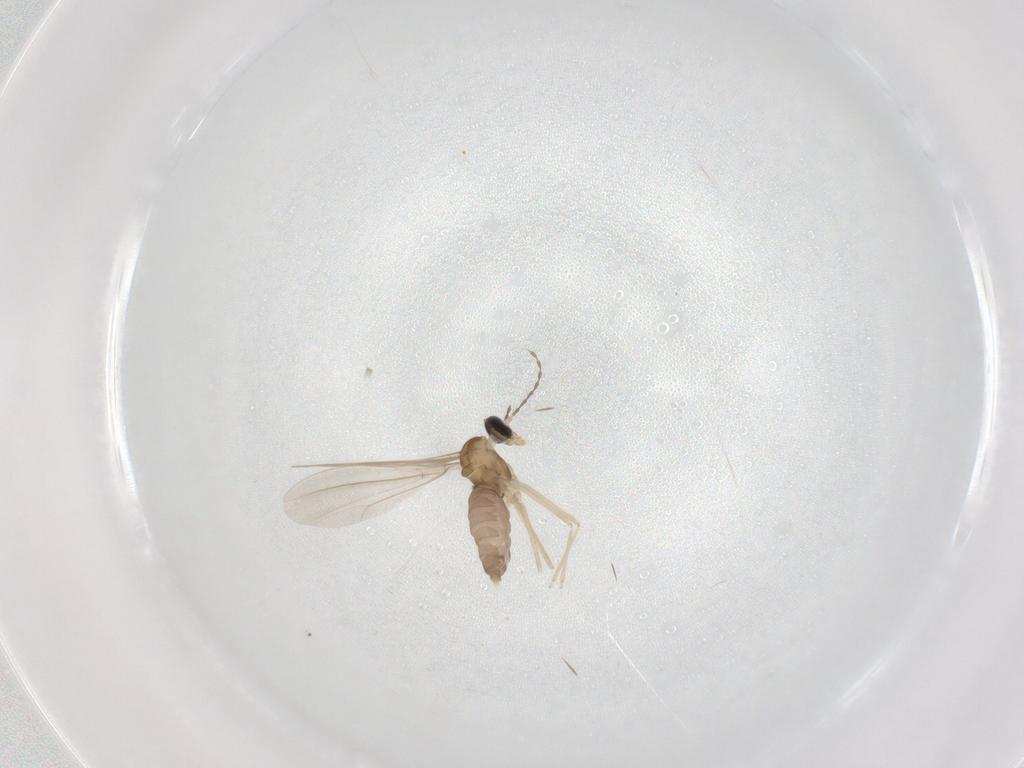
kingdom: Animalia
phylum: Arthropoda
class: Insecta
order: Diptera
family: Cecidomyiidae
